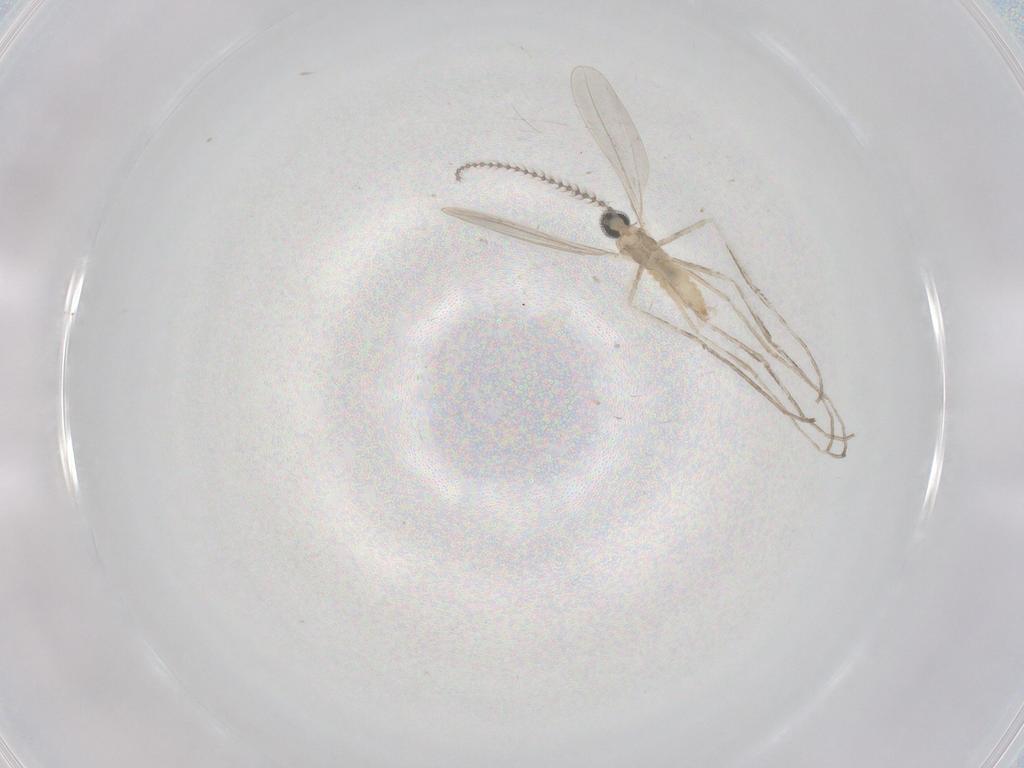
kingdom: Animalia
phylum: Arthropoda
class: Insecta
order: Diptera
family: Cecidomyiidae
